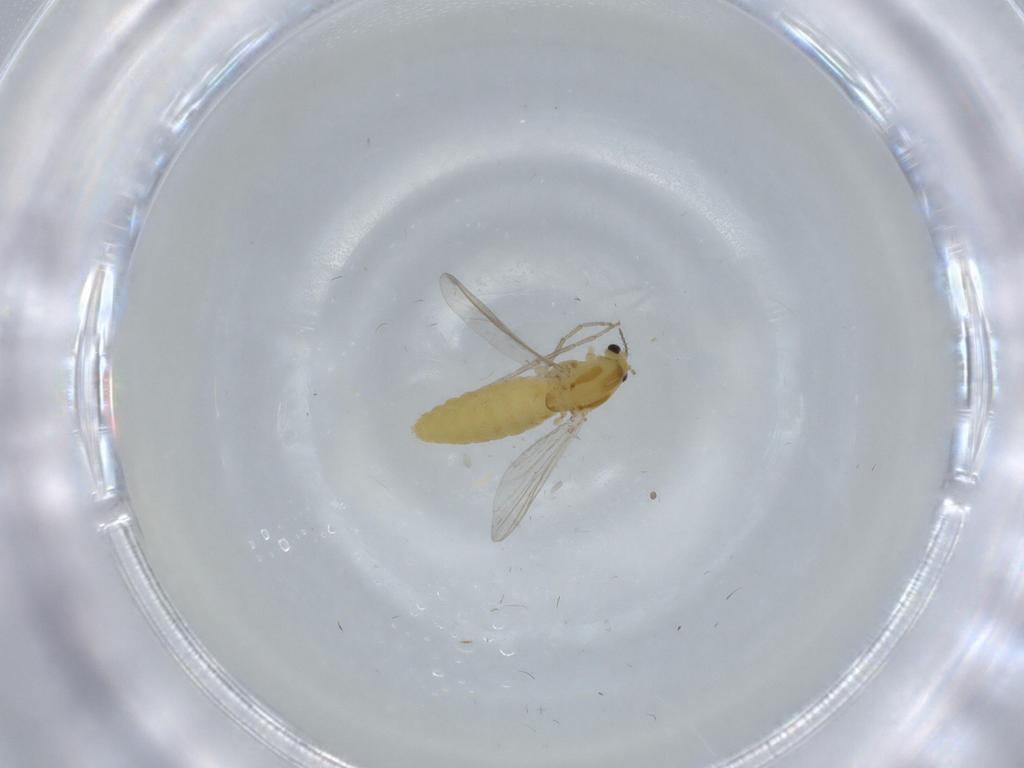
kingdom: Animalia
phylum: Arthropoda
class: Insecta
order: Diptera
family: Chironomidae
